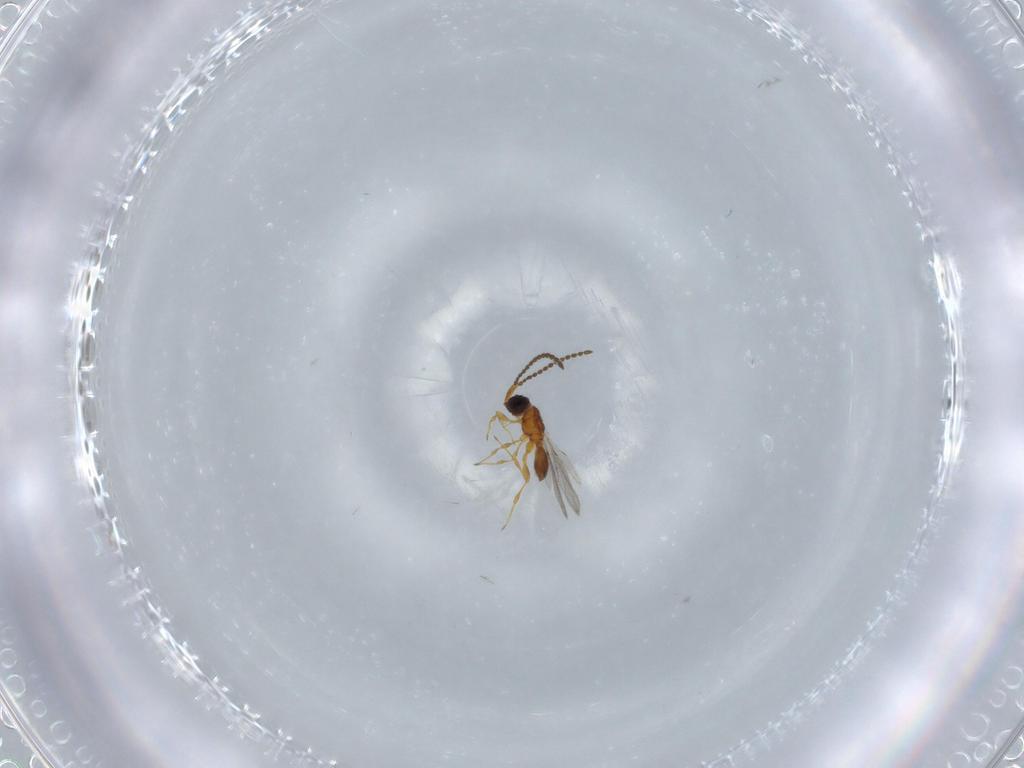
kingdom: Animalia
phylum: Arthropoda
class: Insecta
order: Hymenoptera
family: Diapriidae
